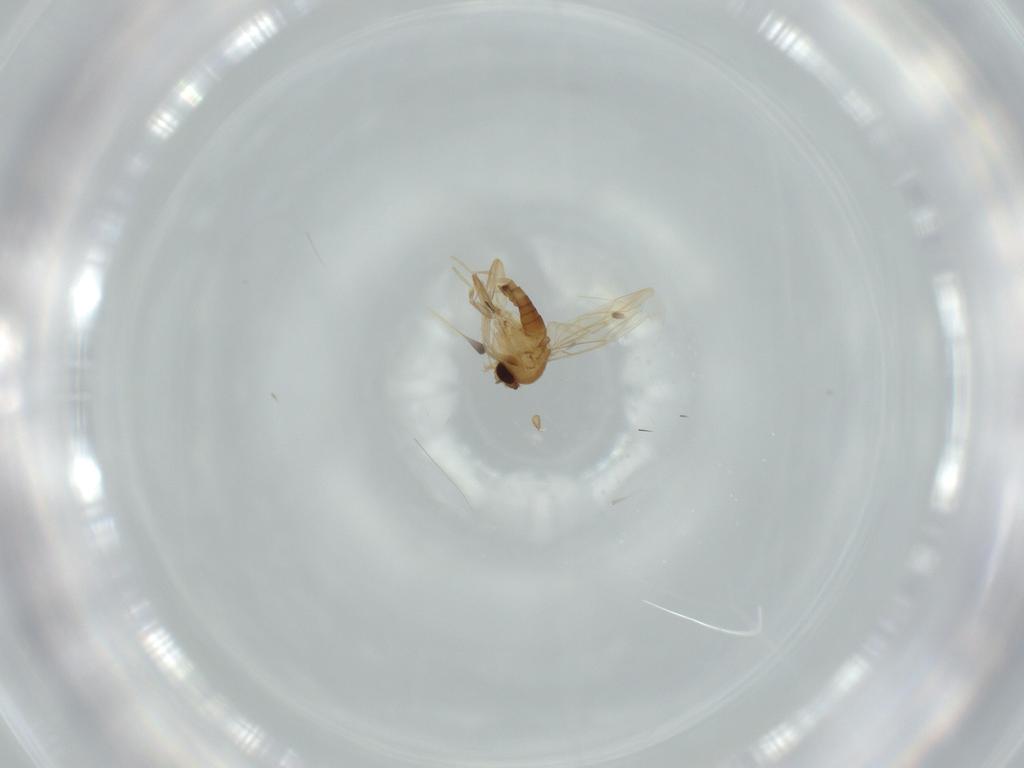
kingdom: Animalia
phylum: Arthropoda
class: Insecta
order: Diptera
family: Milichiidae
